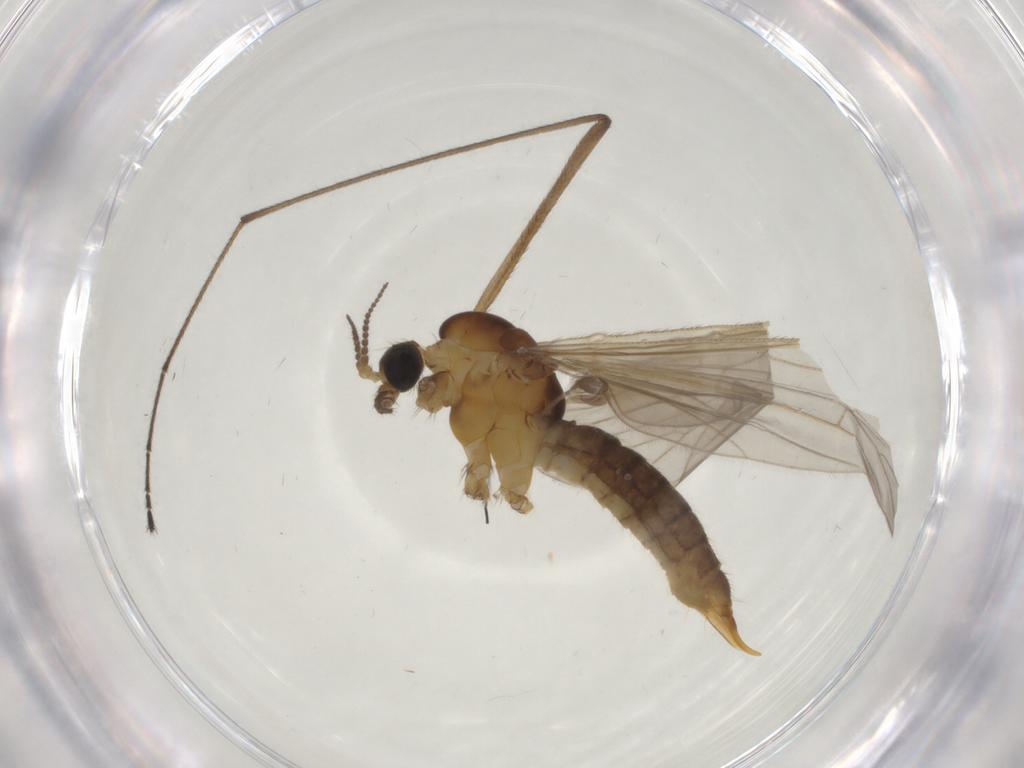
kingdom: Animalia
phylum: Arthropoda
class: Insecta
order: Diptera
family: Limoniidae
